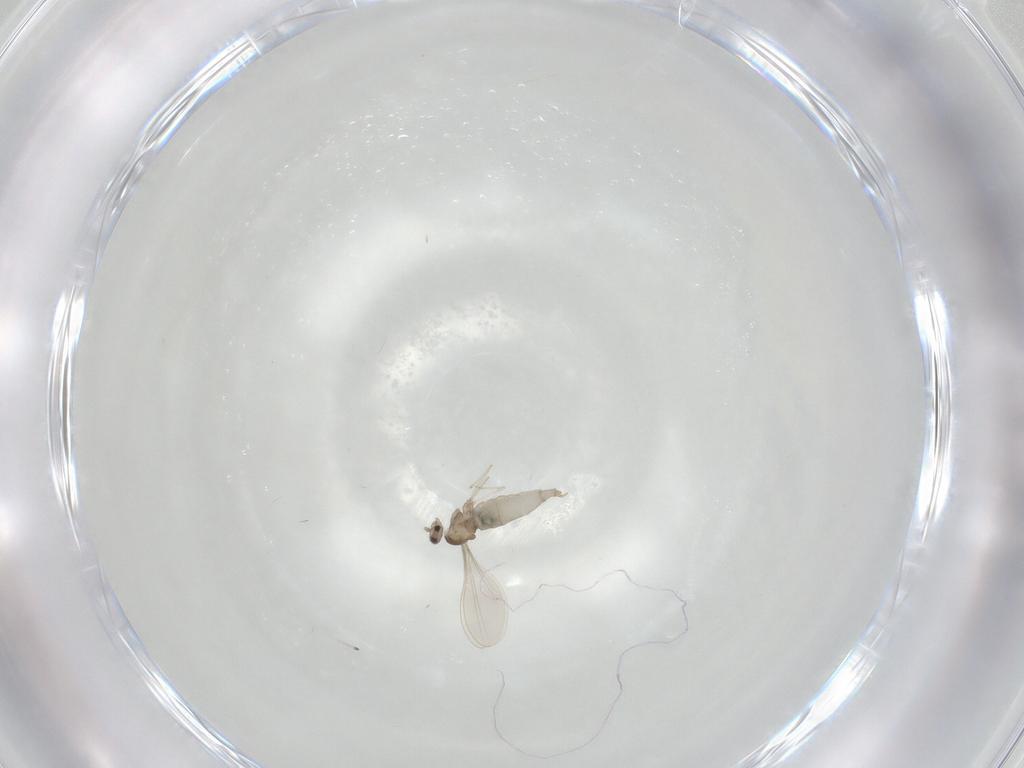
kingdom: Animalia
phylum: Arthropoda
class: Insecta
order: Diptera
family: Cecidomyiidae
